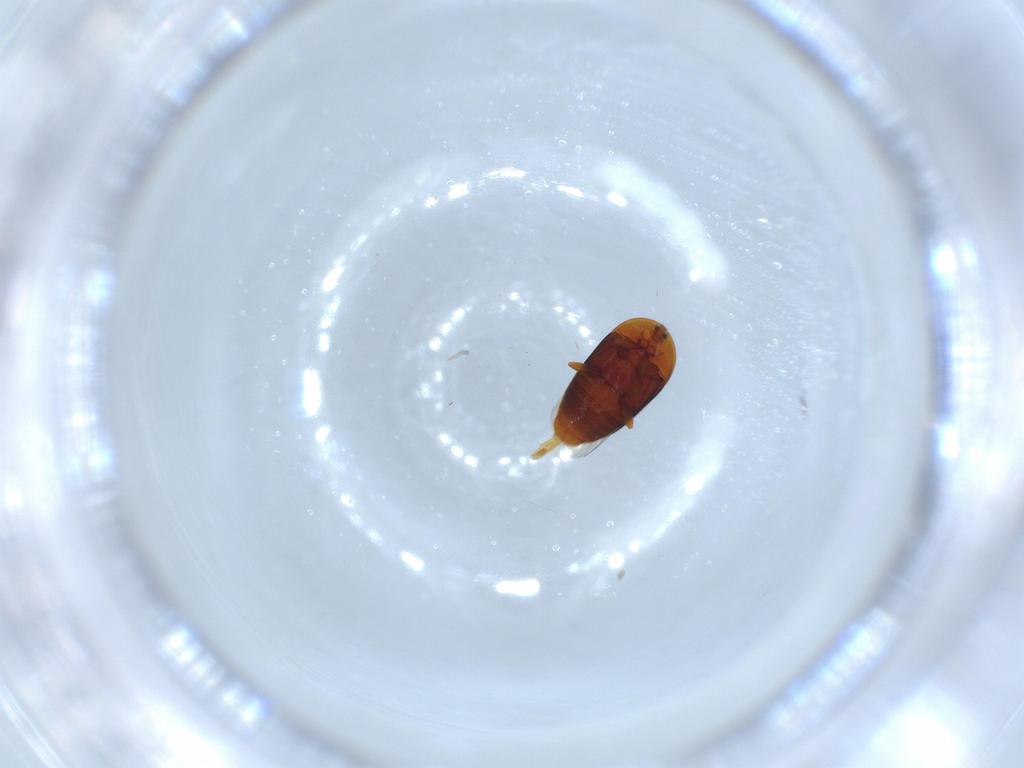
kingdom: Animalia
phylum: Arthropoda
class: Insecta
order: Coleoptera
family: Corylophidae
